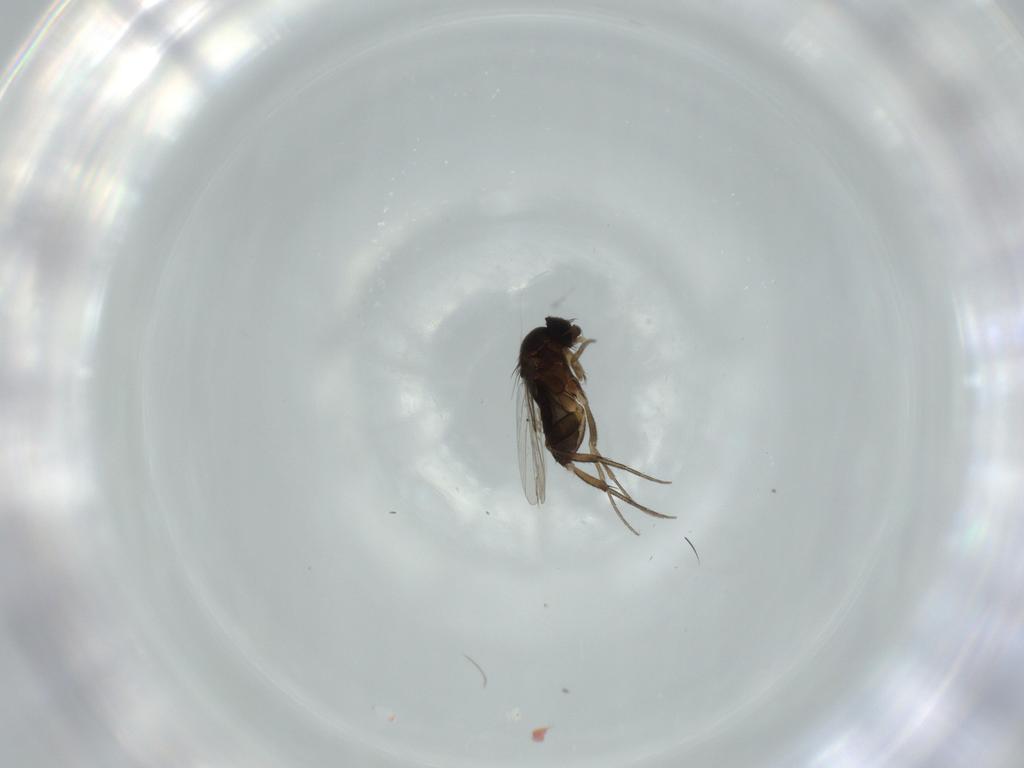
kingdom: Animalia
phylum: Arthropoda
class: Insecta
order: Diptera
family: Phoridae
